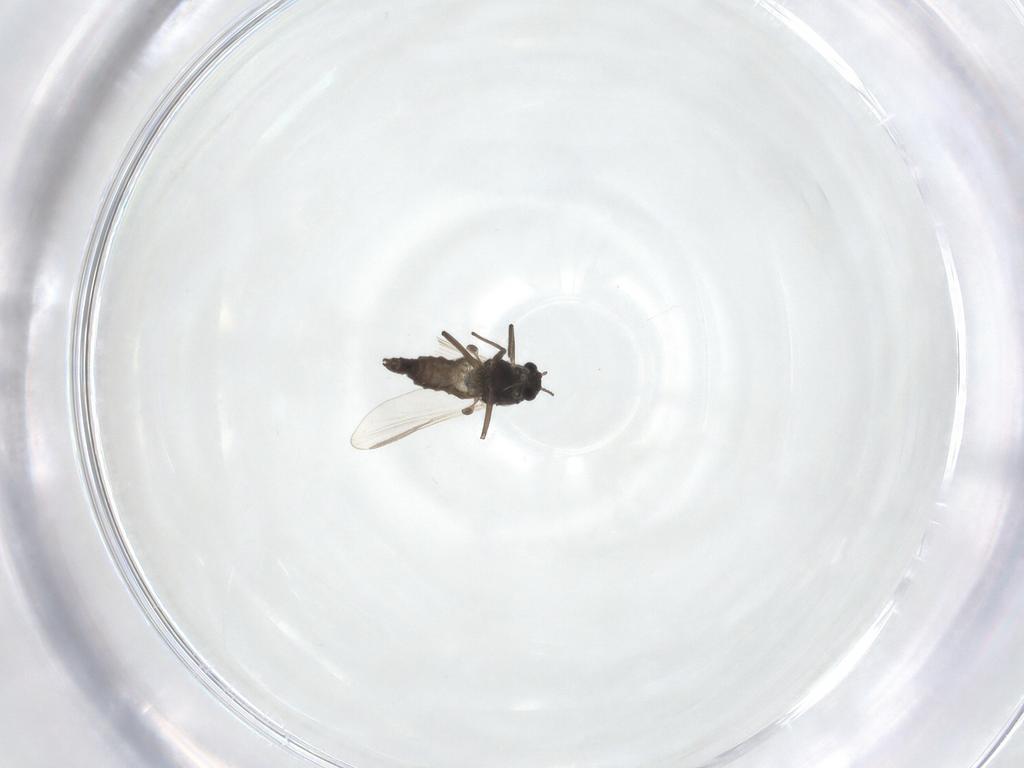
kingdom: Animalia
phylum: Arthropoda
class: Insecta
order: Diptera
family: Chironomidae
